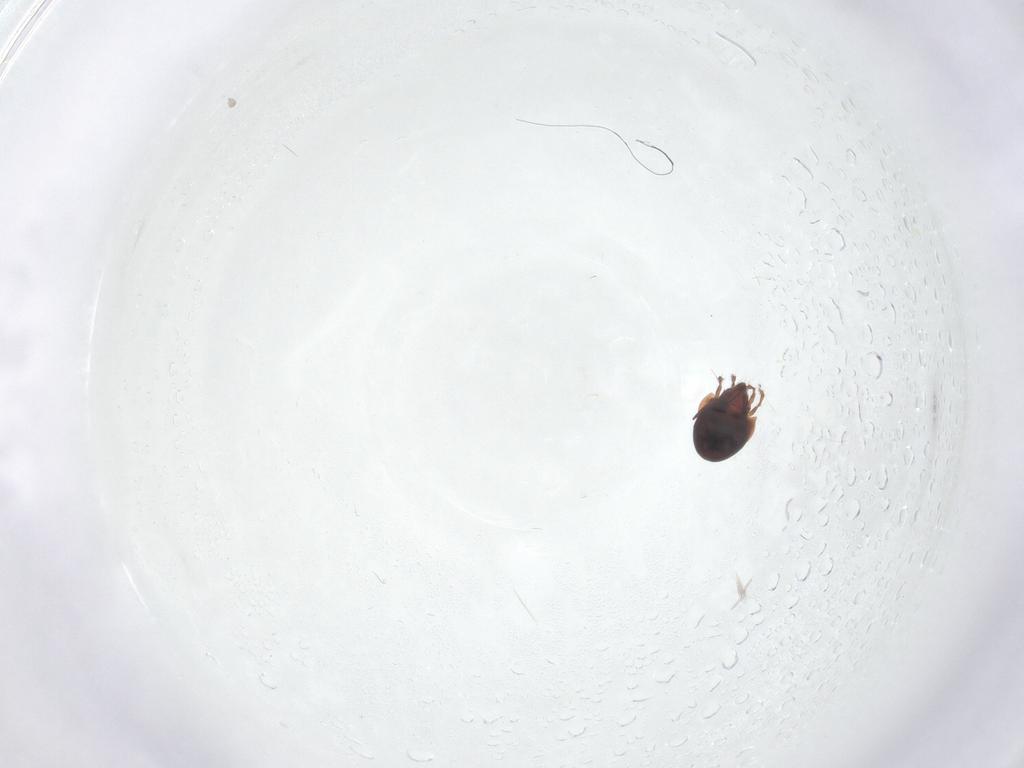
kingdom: Animalia
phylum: Arthropoda
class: Arachnida
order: Sarcoptiformes
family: Ceratozetidae
